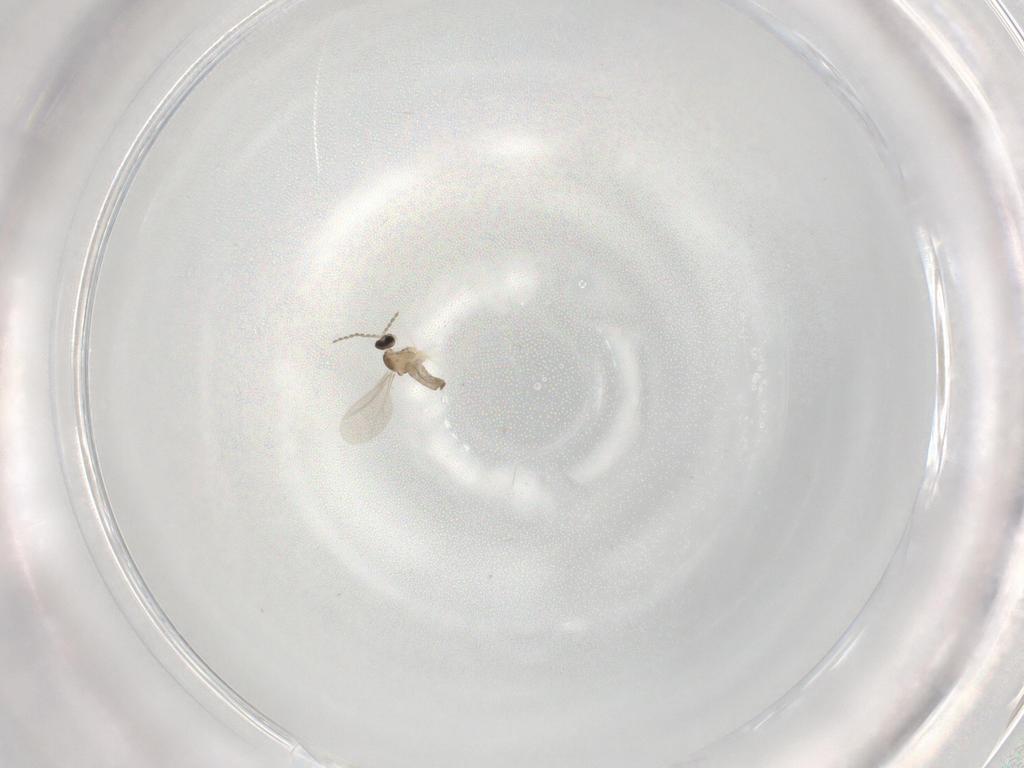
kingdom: Animalia
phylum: Arthropoda
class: Insecta
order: Diptera
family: Cecidomyiidae
